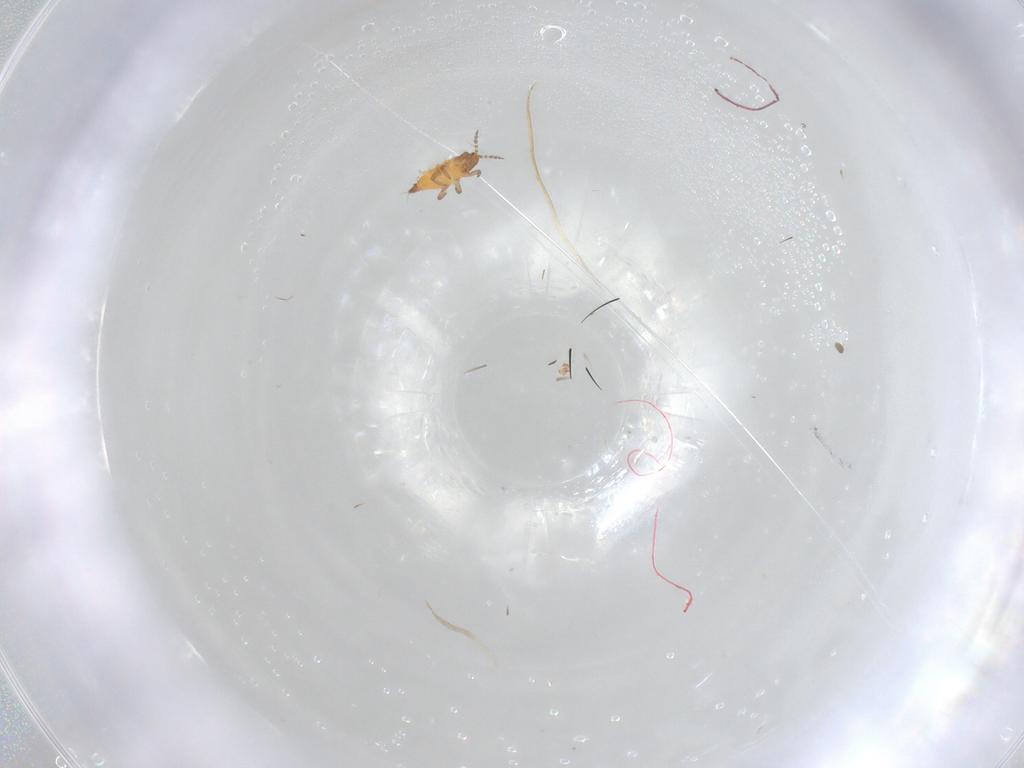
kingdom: Animalia
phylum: Arthropoda
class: Insecta
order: Thysanoptera
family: Phlaeothripidae
